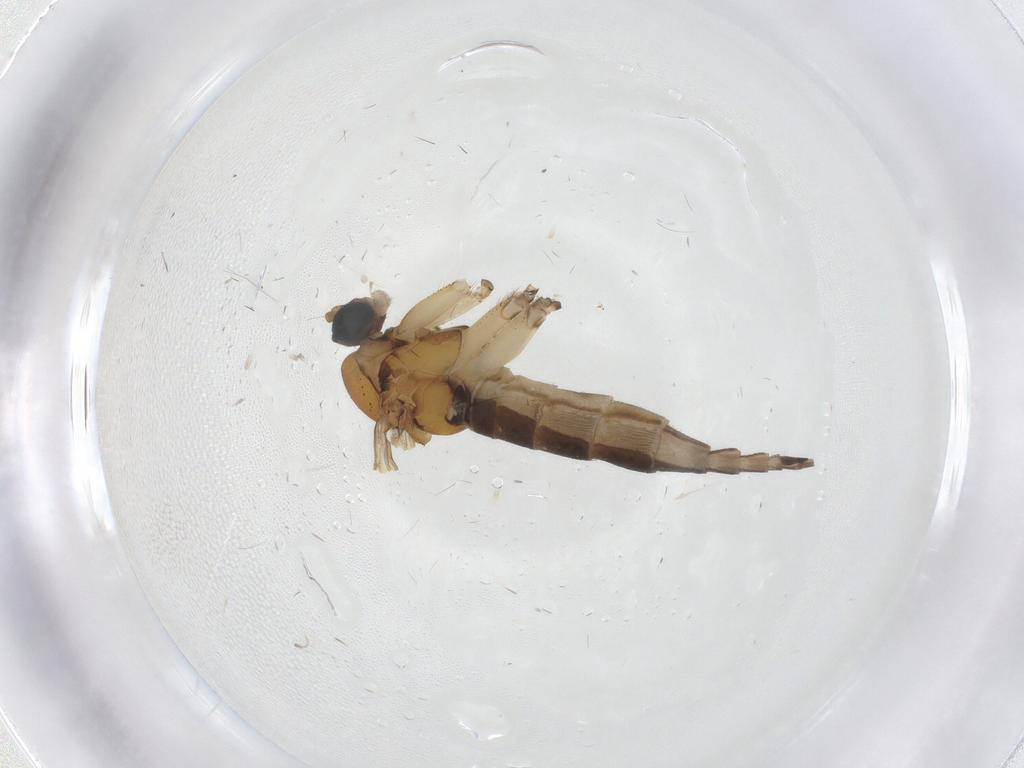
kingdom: Animalia
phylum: Arthropoda
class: Insecta
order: Diptera
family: Sciaridae
